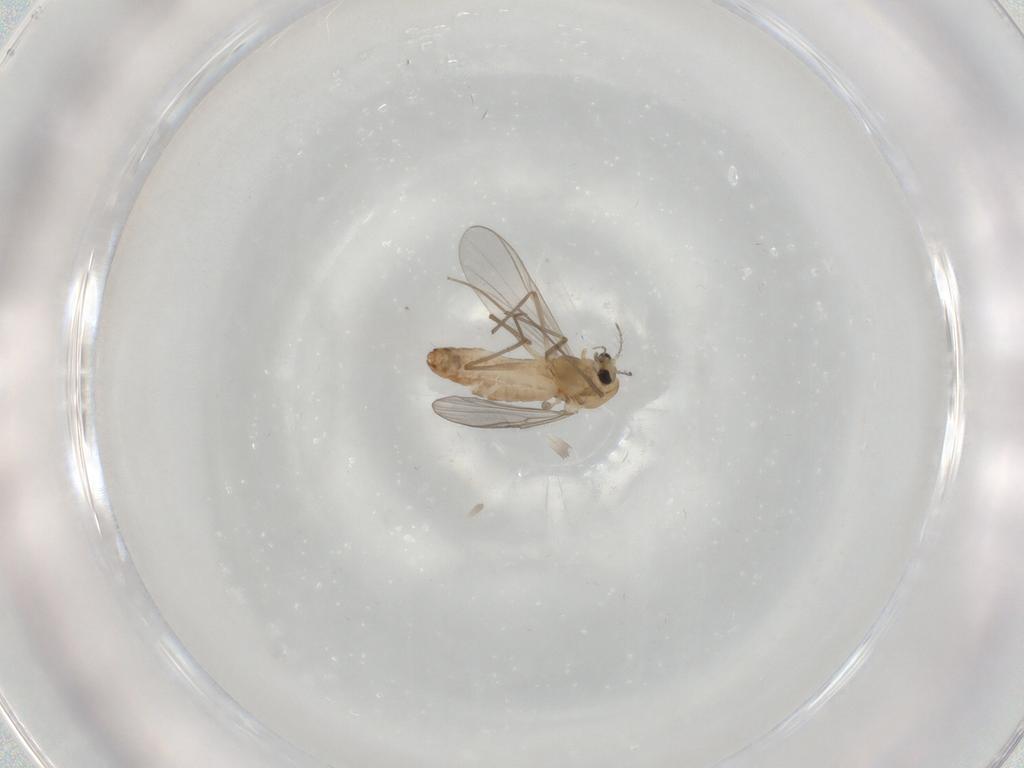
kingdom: Animalia
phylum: Arthropoda
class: Insecta
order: Diptera
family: Chironomidae
